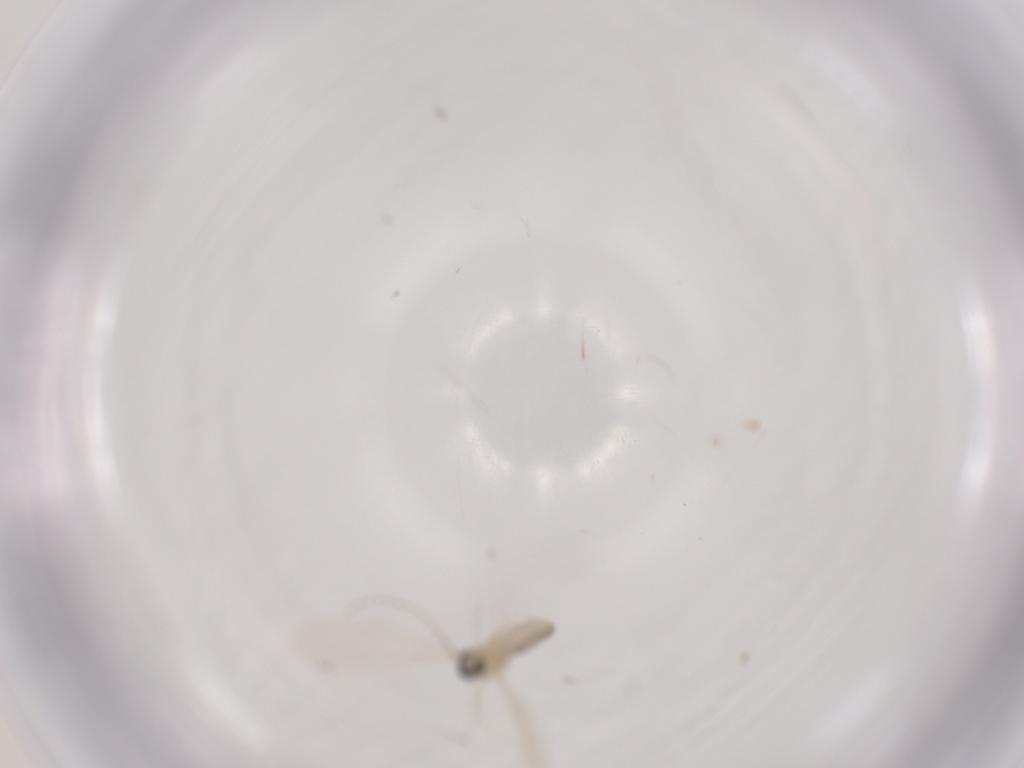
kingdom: Animalia
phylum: Arthropoda
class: Insecta
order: Diptera
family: Cecidomyiidae
